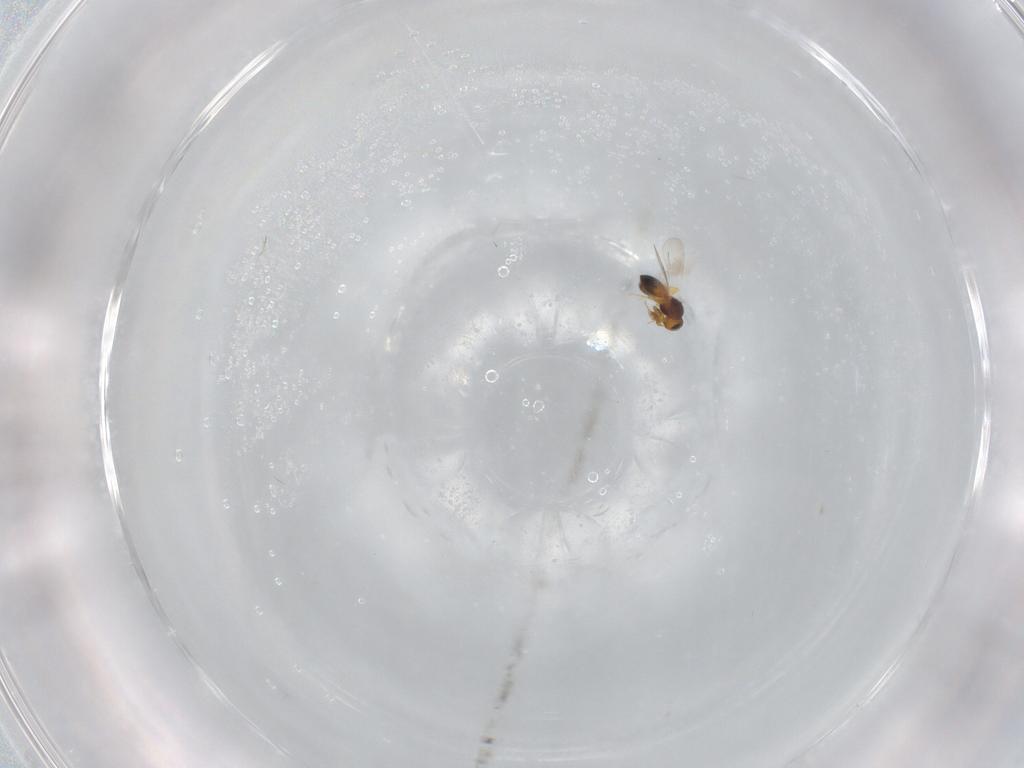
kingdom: Animalia
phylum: Arthropoda
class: Insecta
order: Hymenoptera
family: Platygastridae
